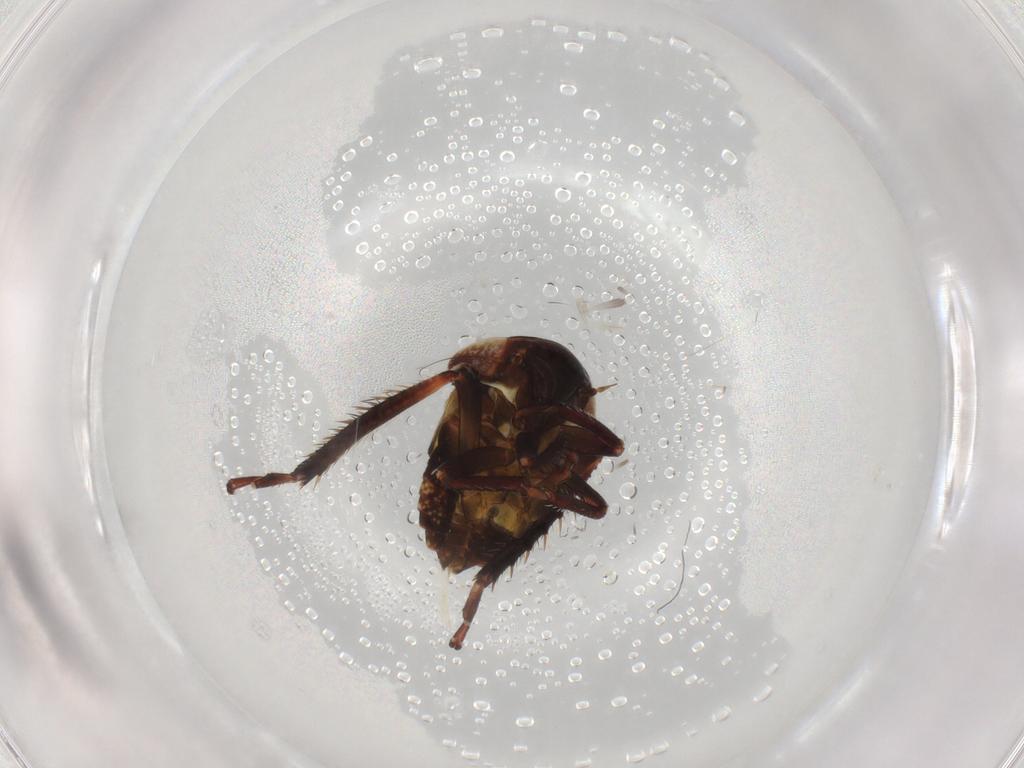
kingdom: Animalia
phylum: Arthropoda
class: Insecta
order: Hemiptera
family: Cicadellidae
